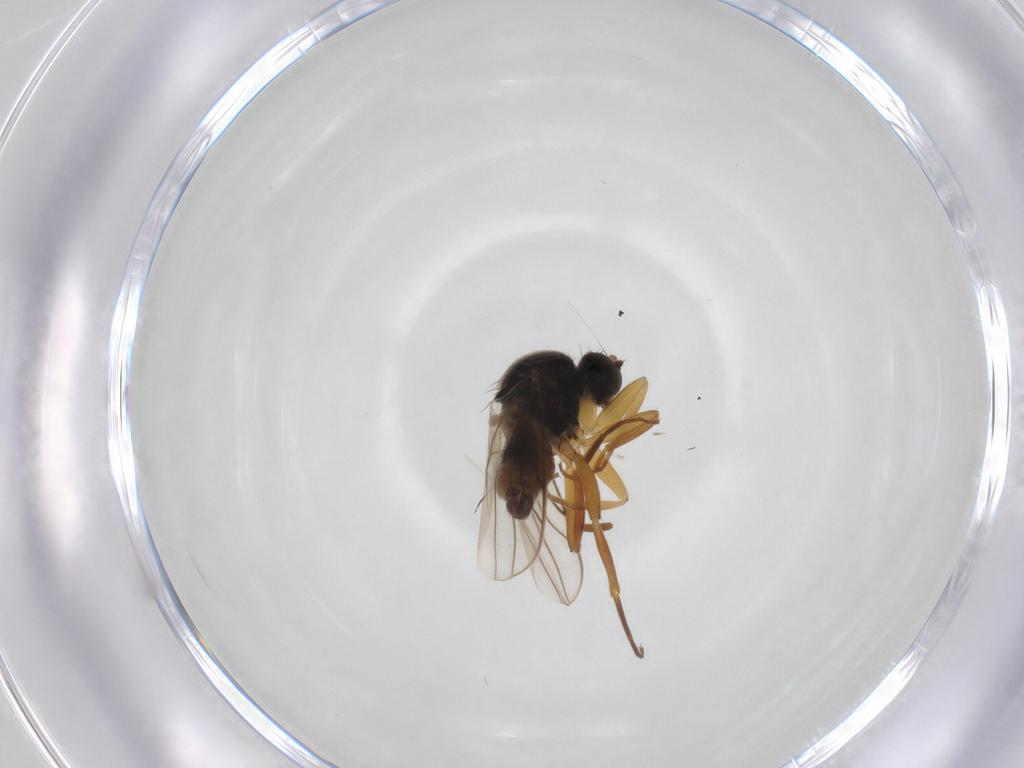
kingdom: Animalia
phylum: Arthropoda
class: Insecta
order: Diptera
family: Hybotidae
